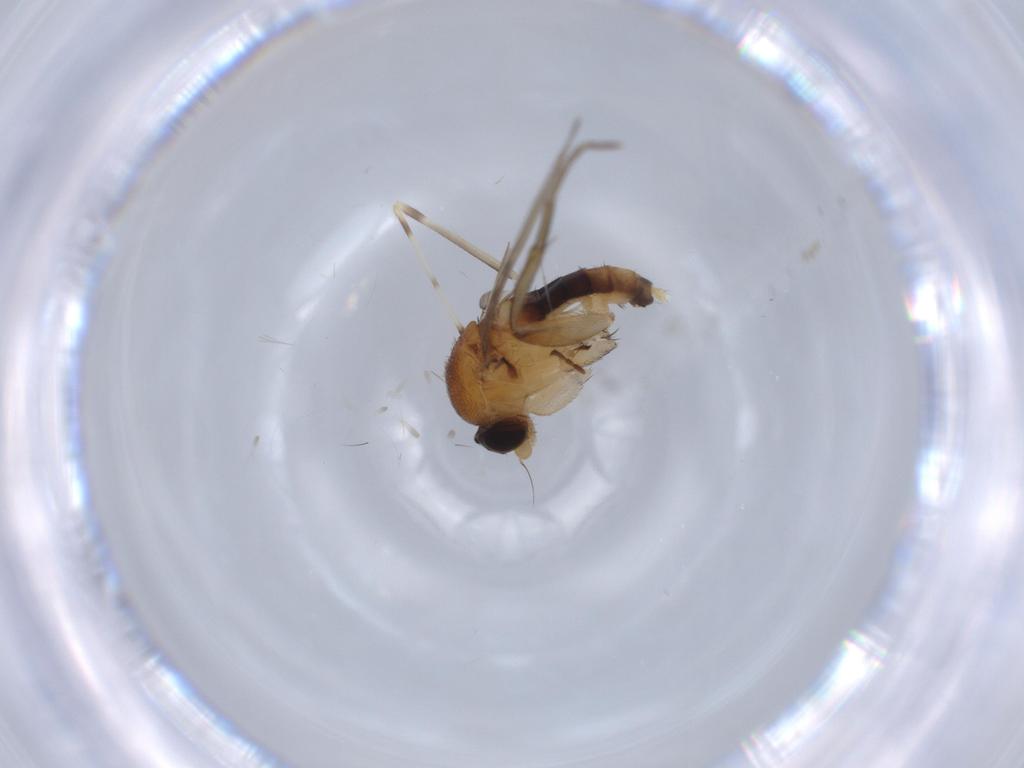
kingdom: Animalia
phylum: Arthropoda
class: Insecta
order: Diptera
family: Phoridae
